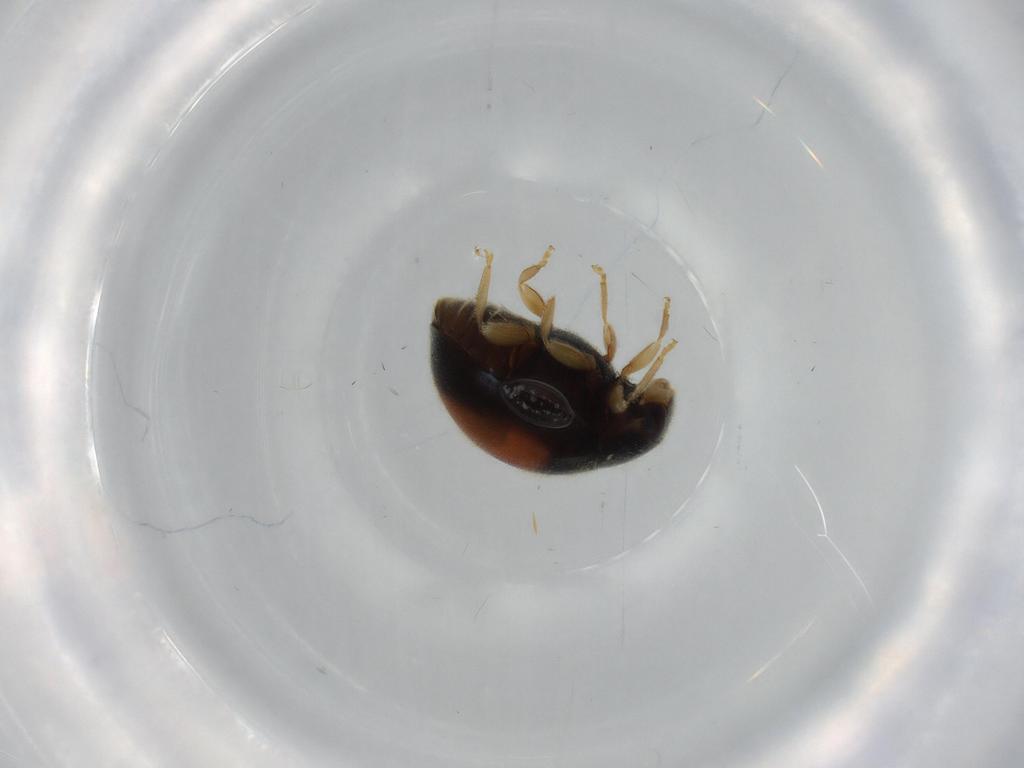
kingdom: Animalia
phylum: Arthropoda
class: Insecta
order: Coleoptera
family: Coccinellidae
